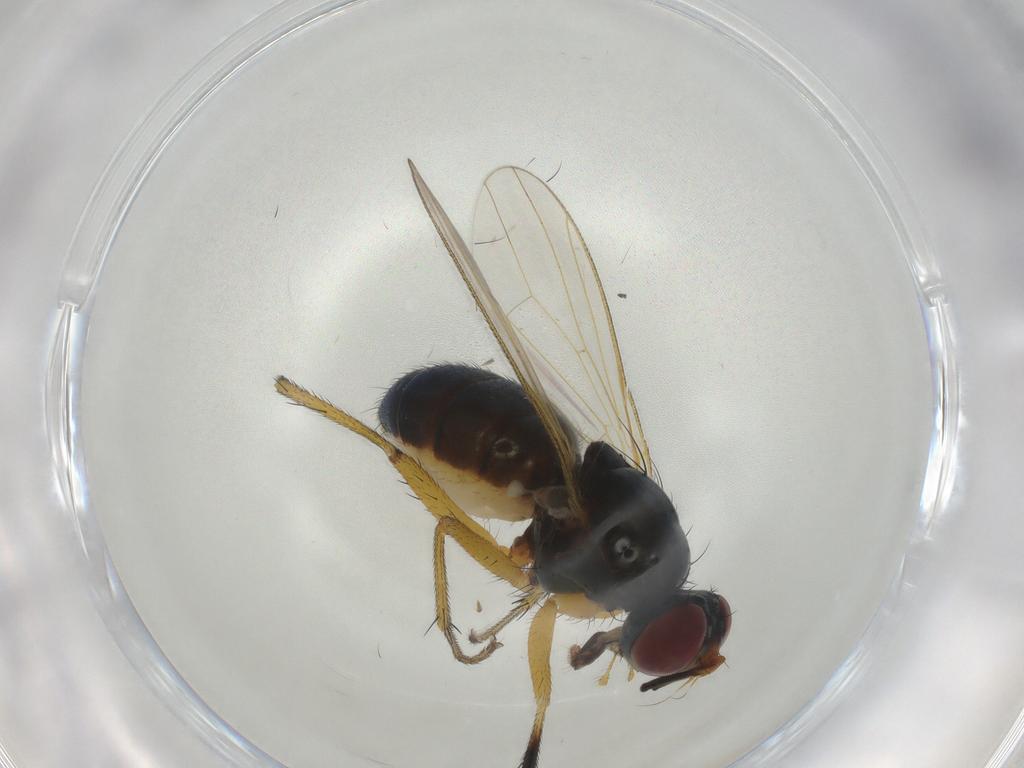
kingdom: Animalia
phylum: Arthropoda
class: Insecta
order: Diptera
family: Muscidae
